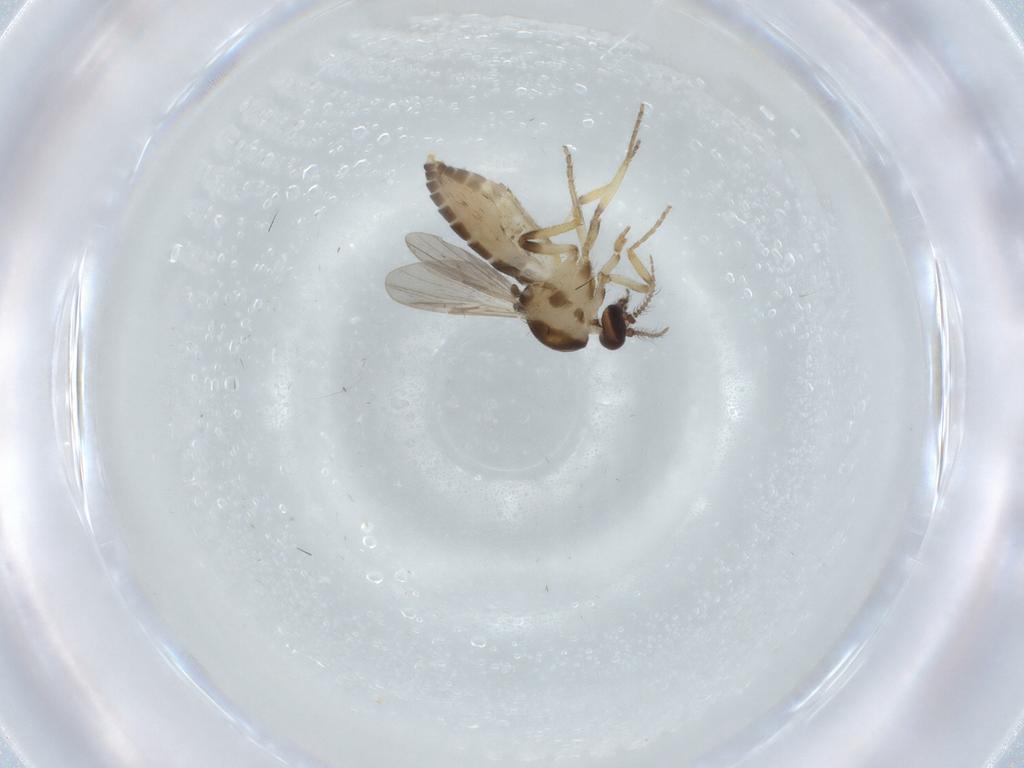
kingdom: Animalia
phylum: Arthropoda
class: Insecta
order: Diptera
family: Ceratopogonidae
